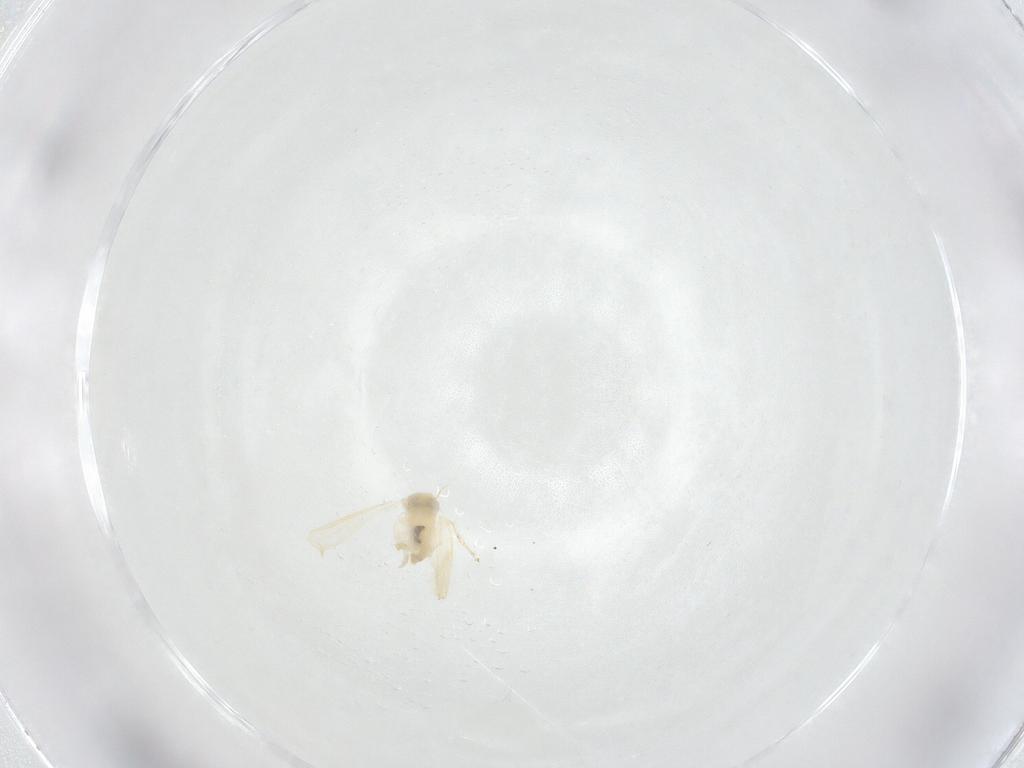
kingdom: Animalia
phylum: Arthropoda
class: Insecta
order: Diptera
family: Sciaridae
